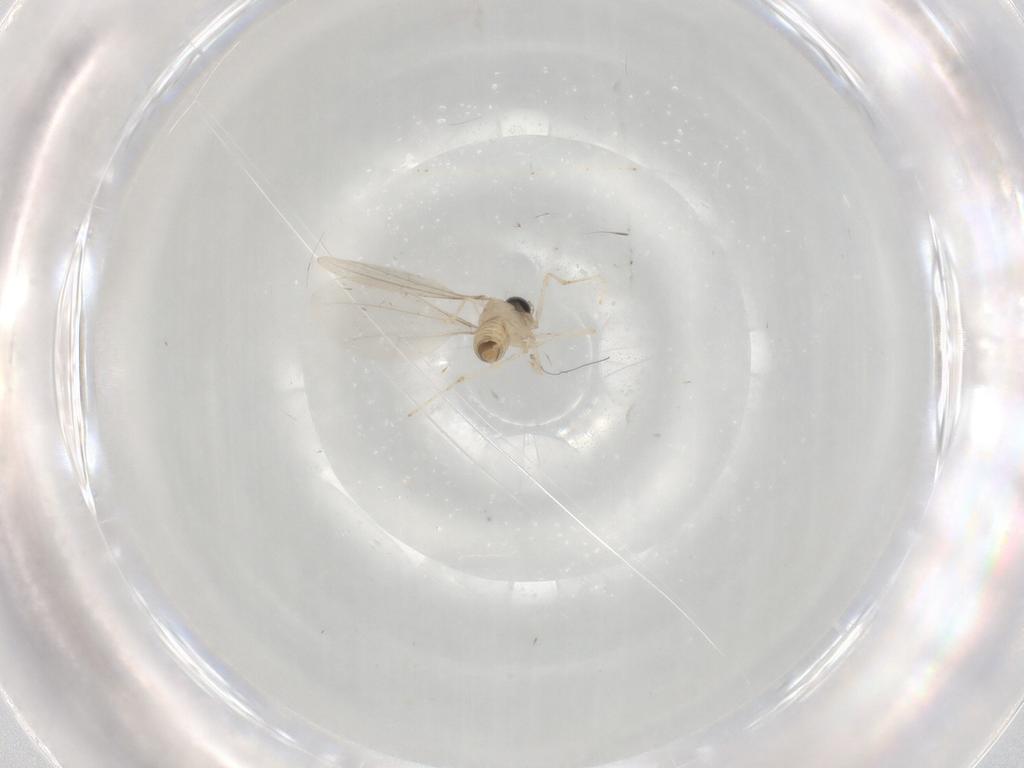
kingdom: Animalia
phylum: Arthropoda
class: Insecta
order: Diptera
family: Cecidomyiidae
